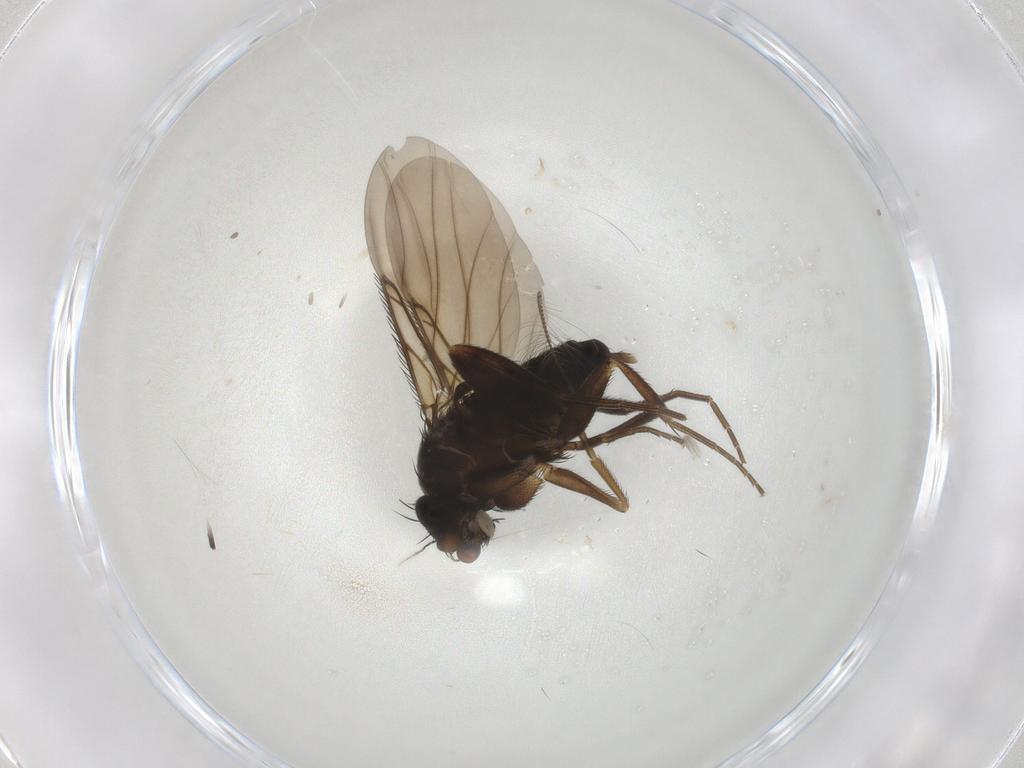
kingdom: Animalia
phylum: Arthropoda
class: Insecta
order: Diptera
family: Phoridae
